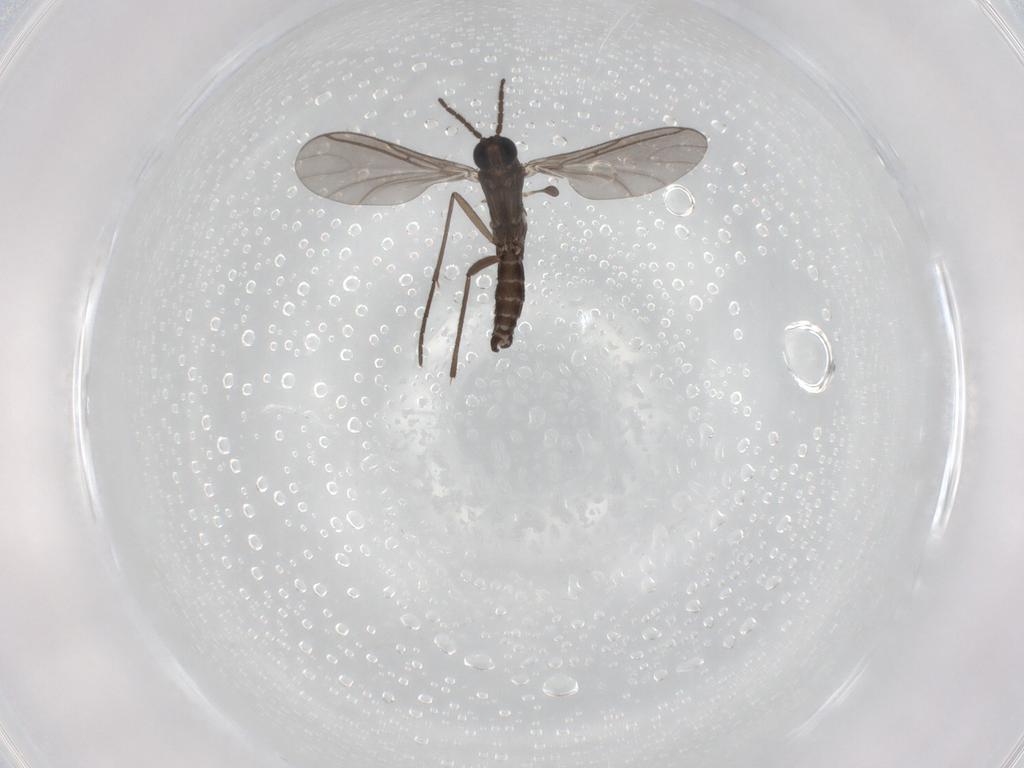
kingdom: Animalia
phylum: Arthropoda
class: Insecta
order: Diptera
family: Sciaridae
